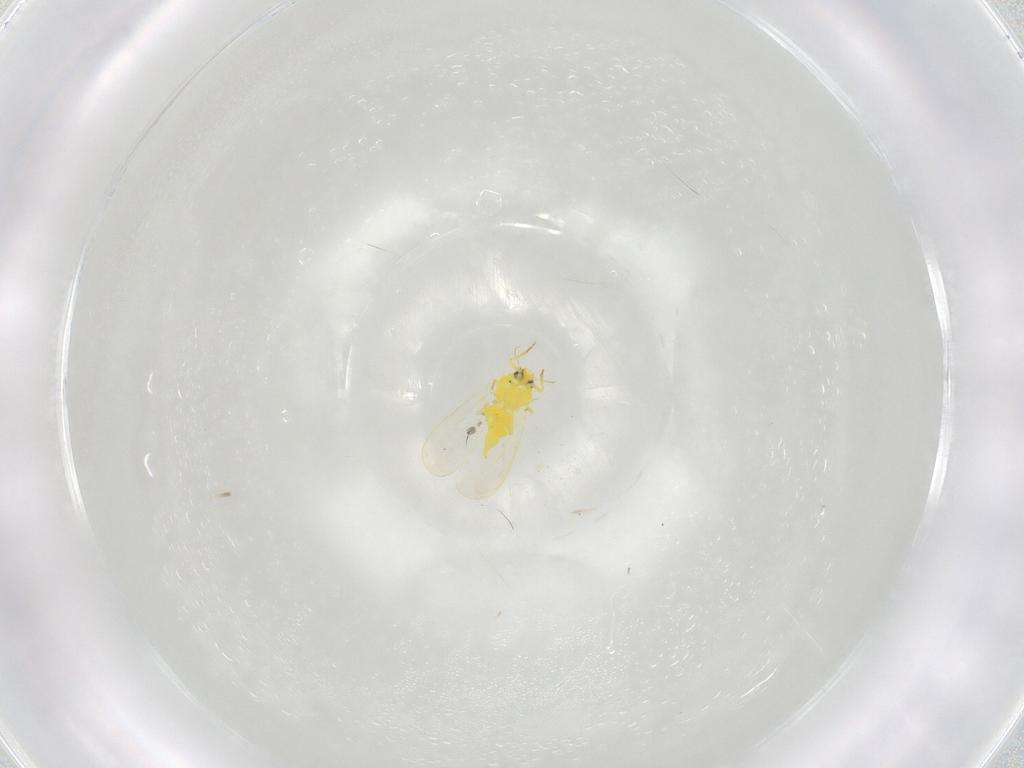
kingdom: Animalia
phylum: Arthropoda
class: Insecta
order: Hemiptera
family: Aleyrodidae
